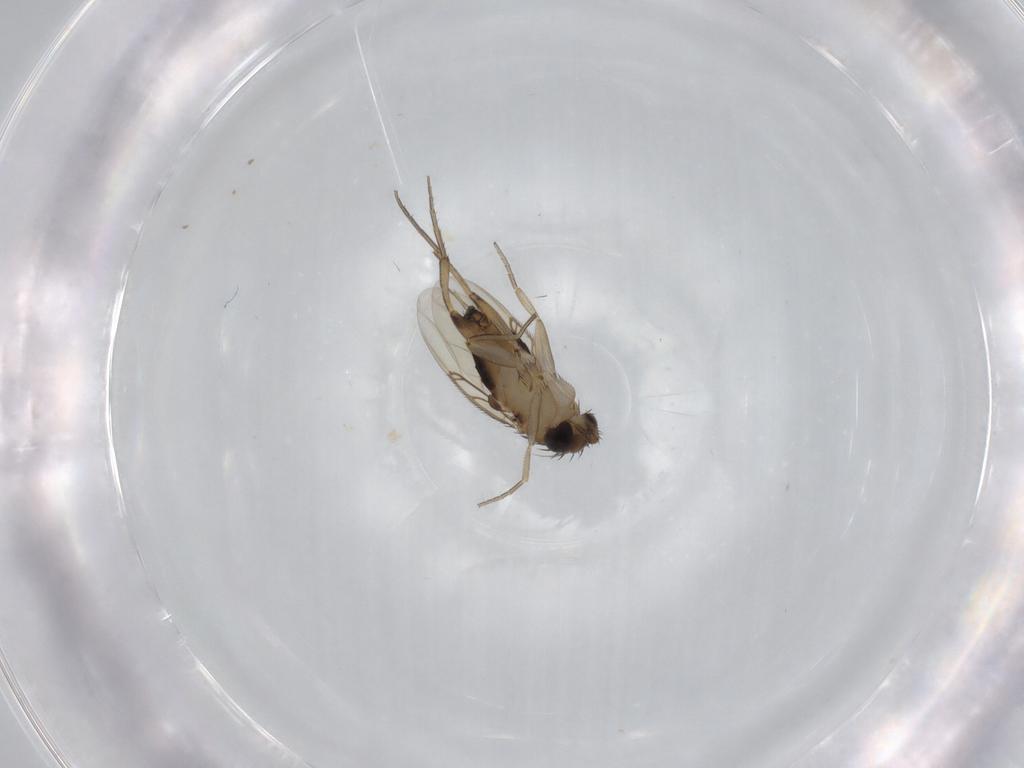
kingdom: Animalia
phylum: Arthropoda
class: Insecta
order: Diptera
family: Phoridae
